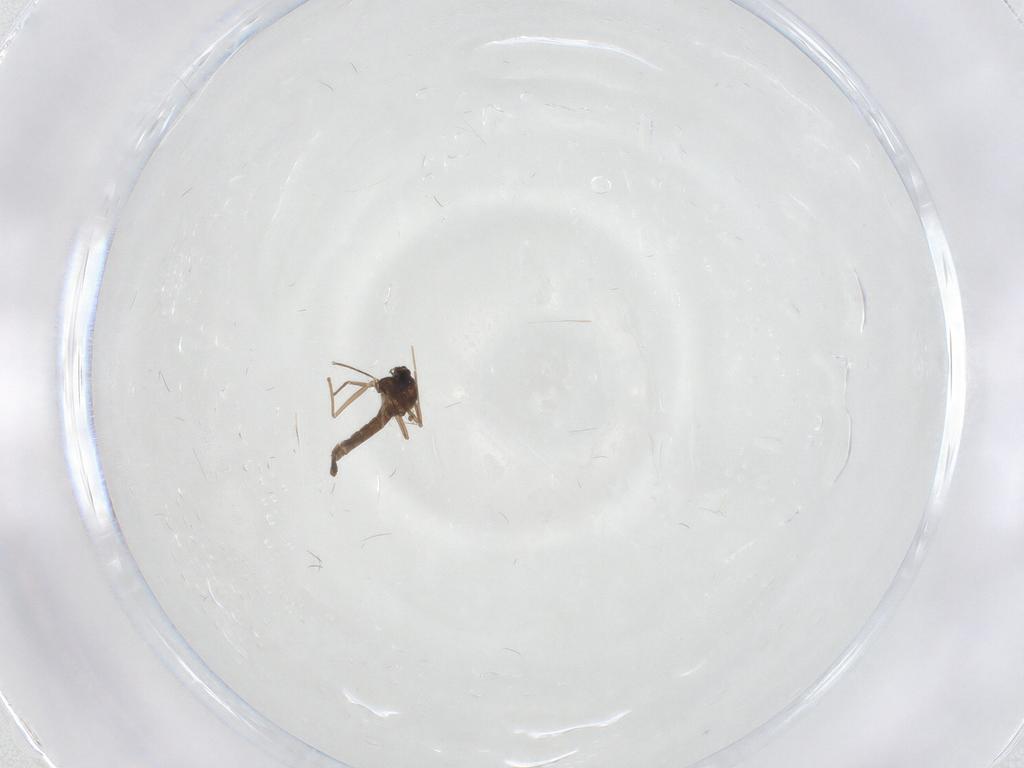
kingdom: Animalia
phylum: Arthropoda
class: Insecta
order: Diptera
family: Chironomidae
